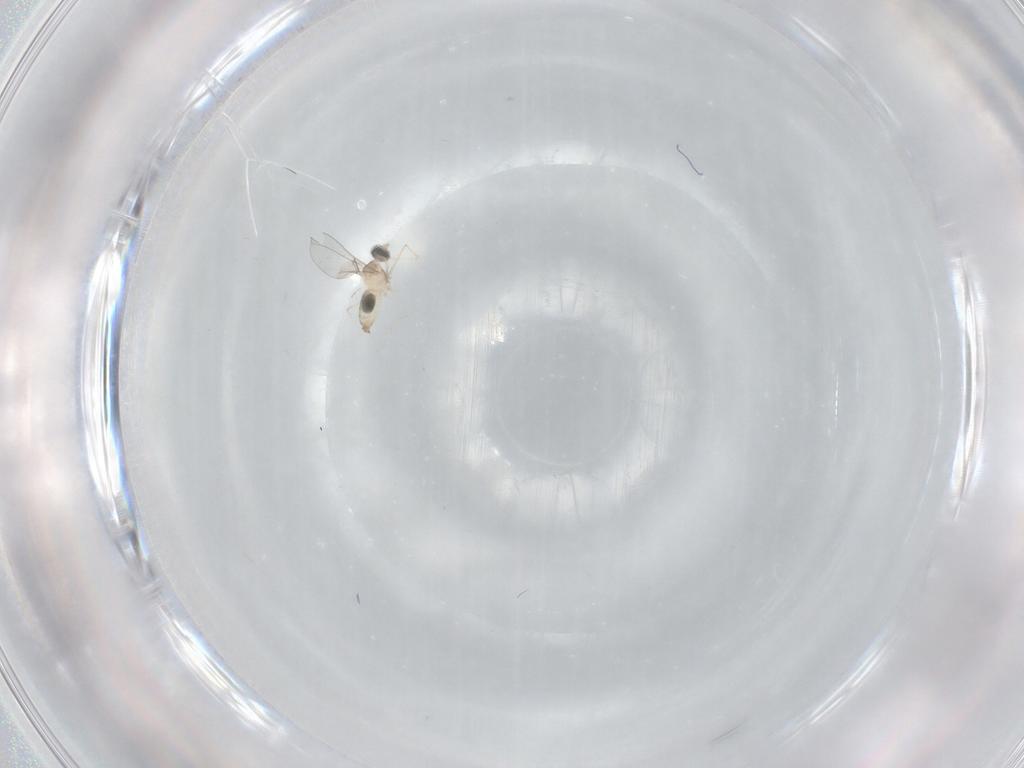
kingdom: Animalia
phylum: Arthropoda
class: Insecta
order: Diptera
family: Cecidomyiidae
